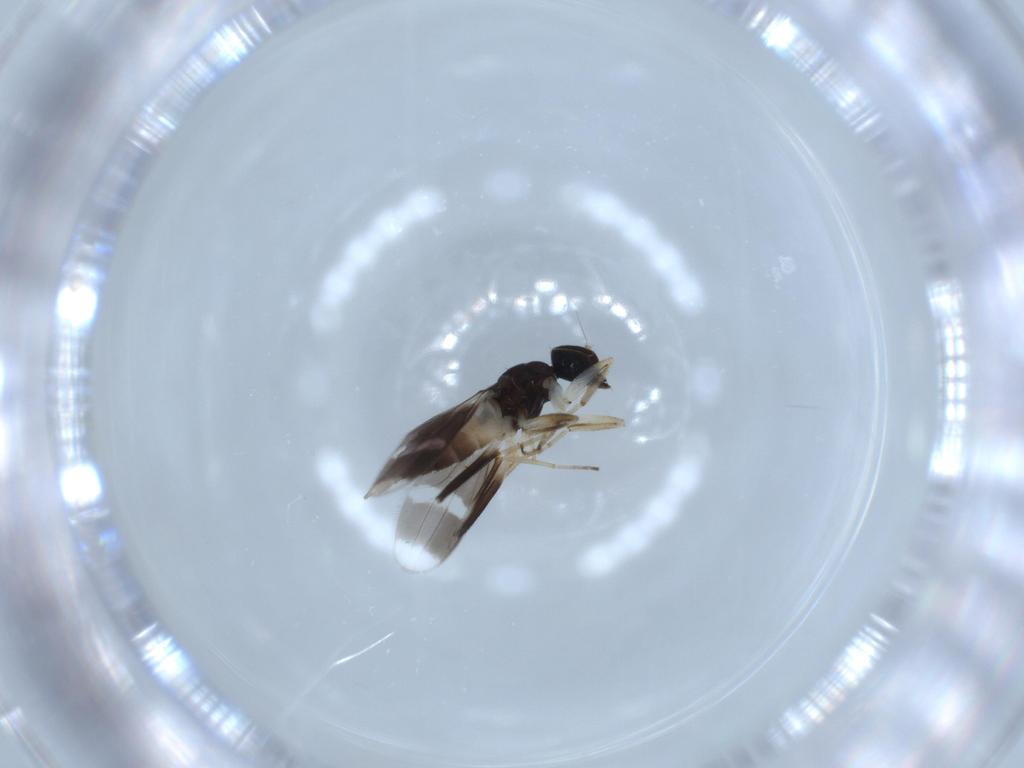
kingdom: Animalia
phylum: Arthropoda
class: Insecta
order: Diptera
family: Hybotidae
